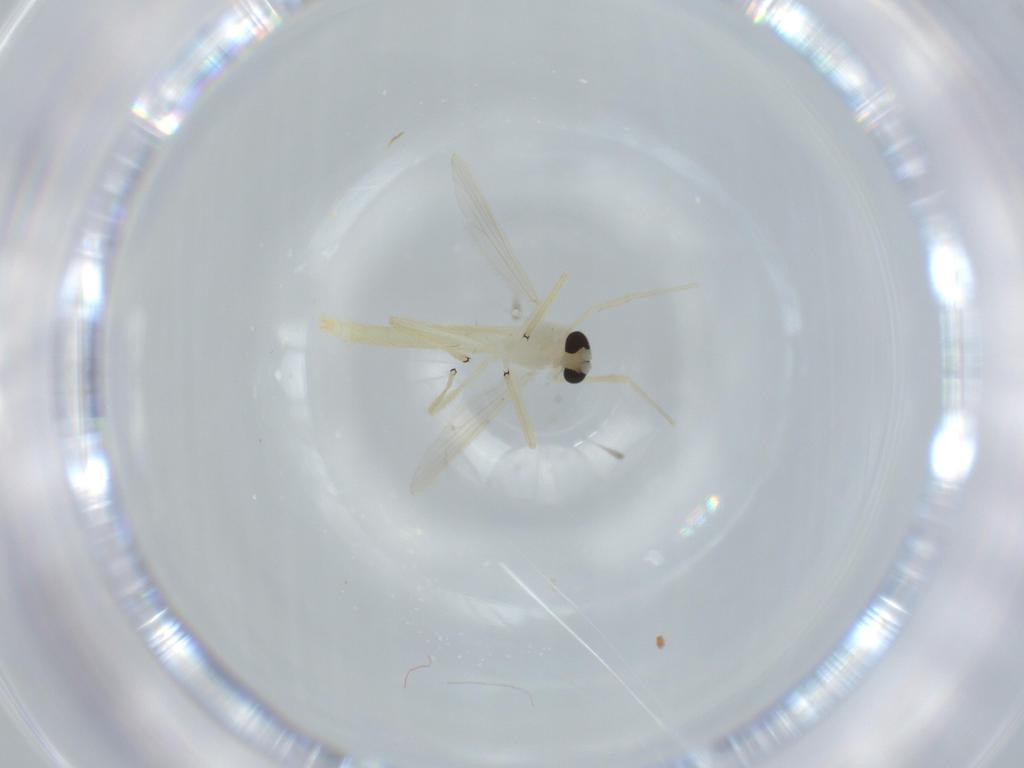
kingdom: Animalia
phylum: Arthropoda
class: Insecta
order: Diptera
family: Chironomidae
